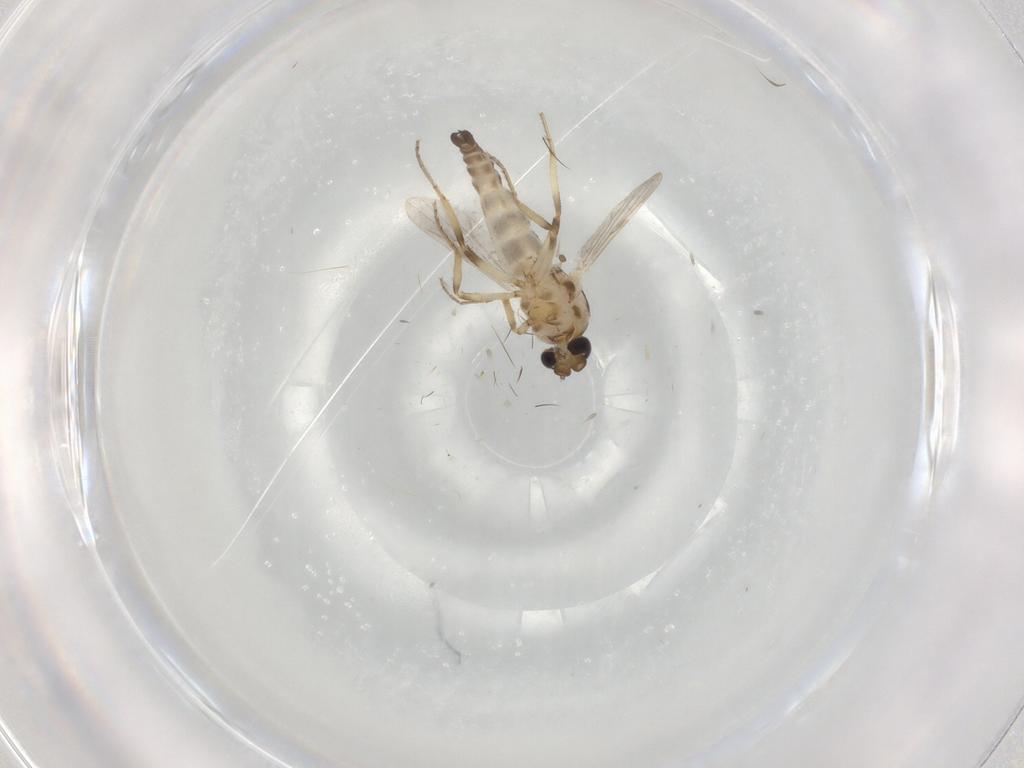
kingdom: Animalia
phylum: Arthropoda
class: Insecta
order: Diptera
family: Ceratopogonidae
